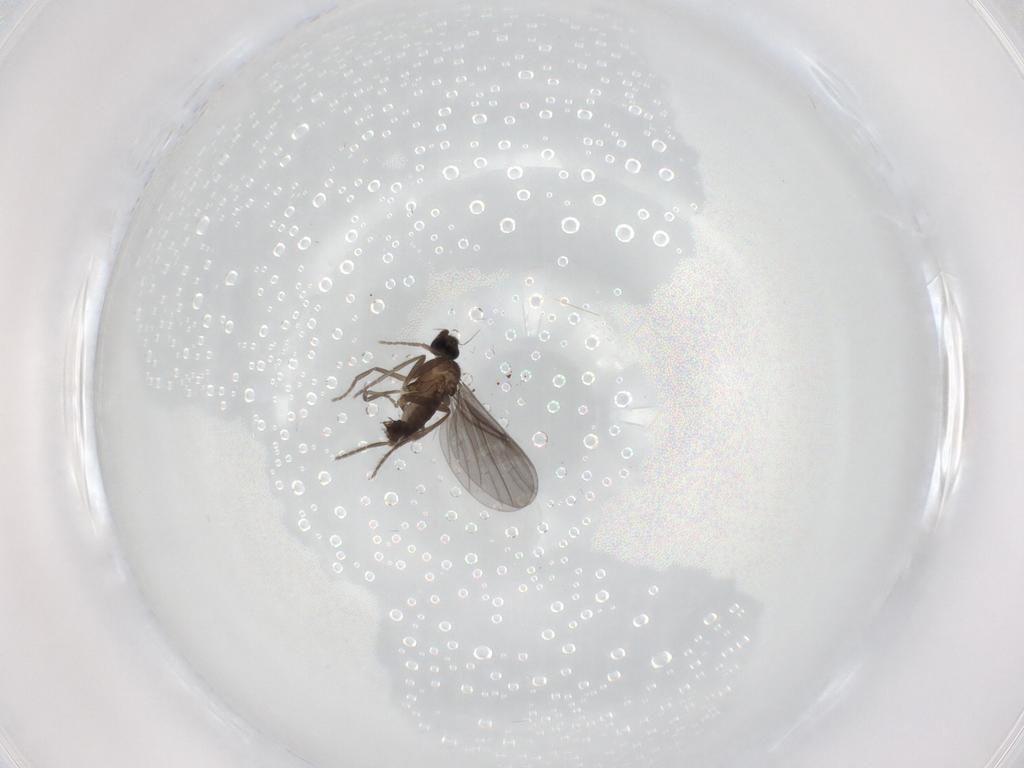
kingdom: Animalia
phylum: Arthropoda
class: Insecta
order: Diptera
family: Phoridae
